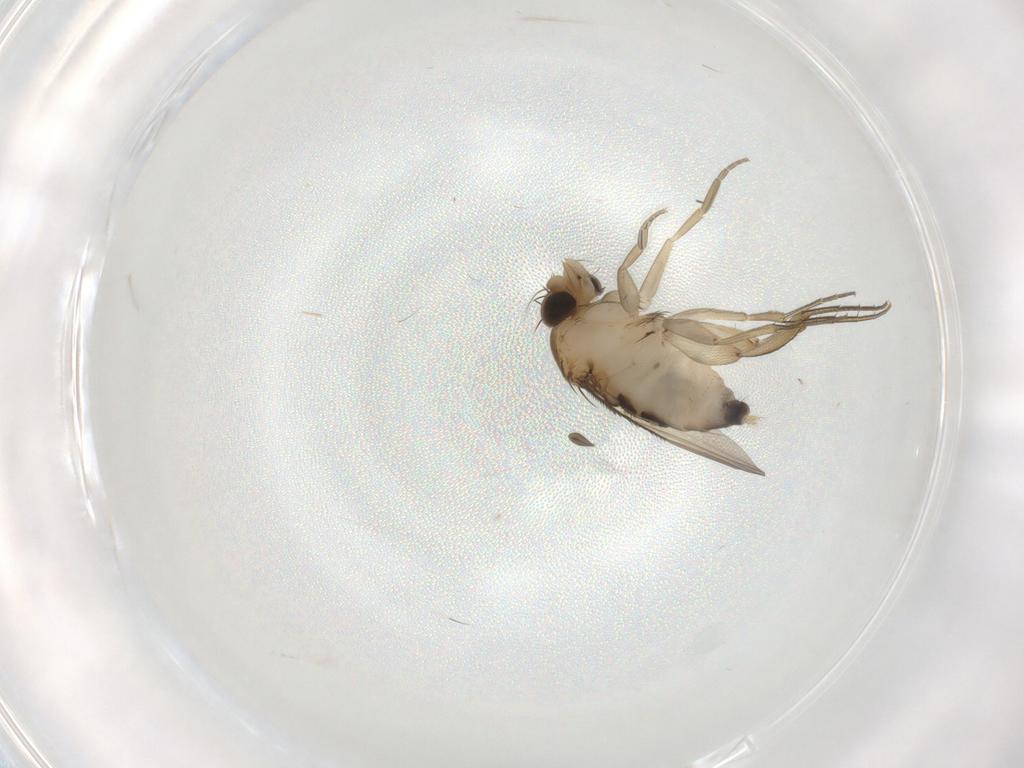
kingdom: Animalia
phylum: Arthropoda
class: Insecta
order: Diptera
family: Phoridae
